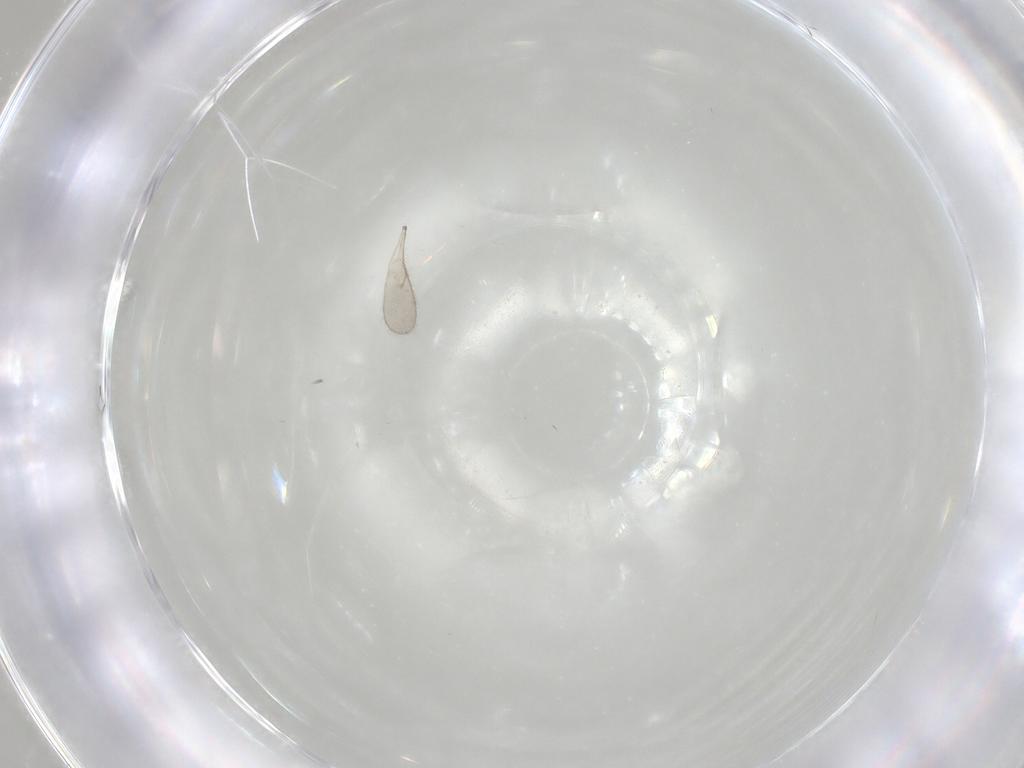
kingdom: Animalia
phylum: Arthropoda
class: Insecta
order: Hymenoptera
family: Scelionidae
